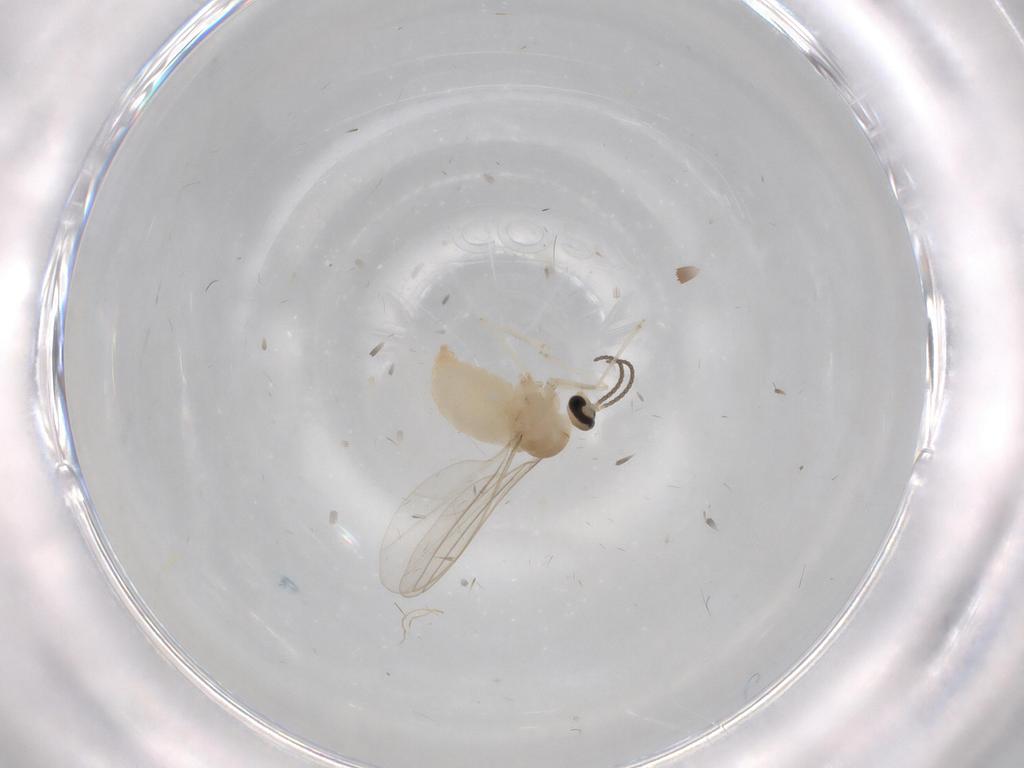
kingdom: Animalia
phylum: Arthropoda
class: Insecta
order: Diptera
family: Cecidomyiidae
